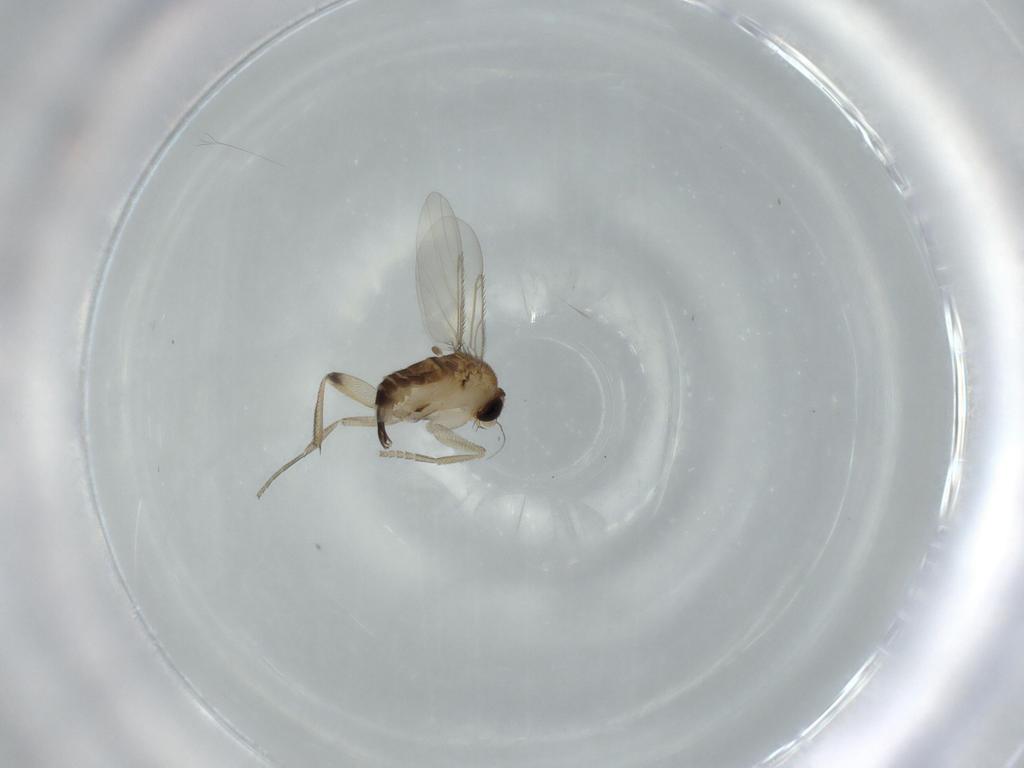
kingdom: Animalia
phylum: Arthropoda
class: Insecta
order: Diptera
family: Phoridae
